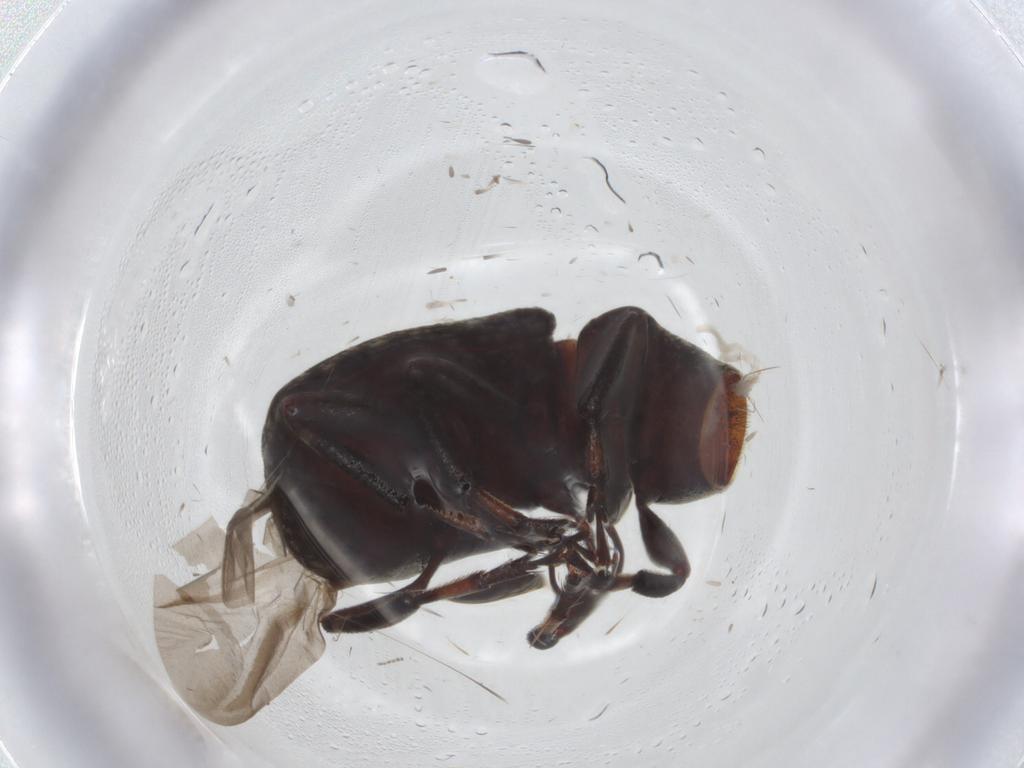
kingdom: Animalia
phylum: Arthropoda
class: Insecta
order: Coleoptera
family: Anthribidae
